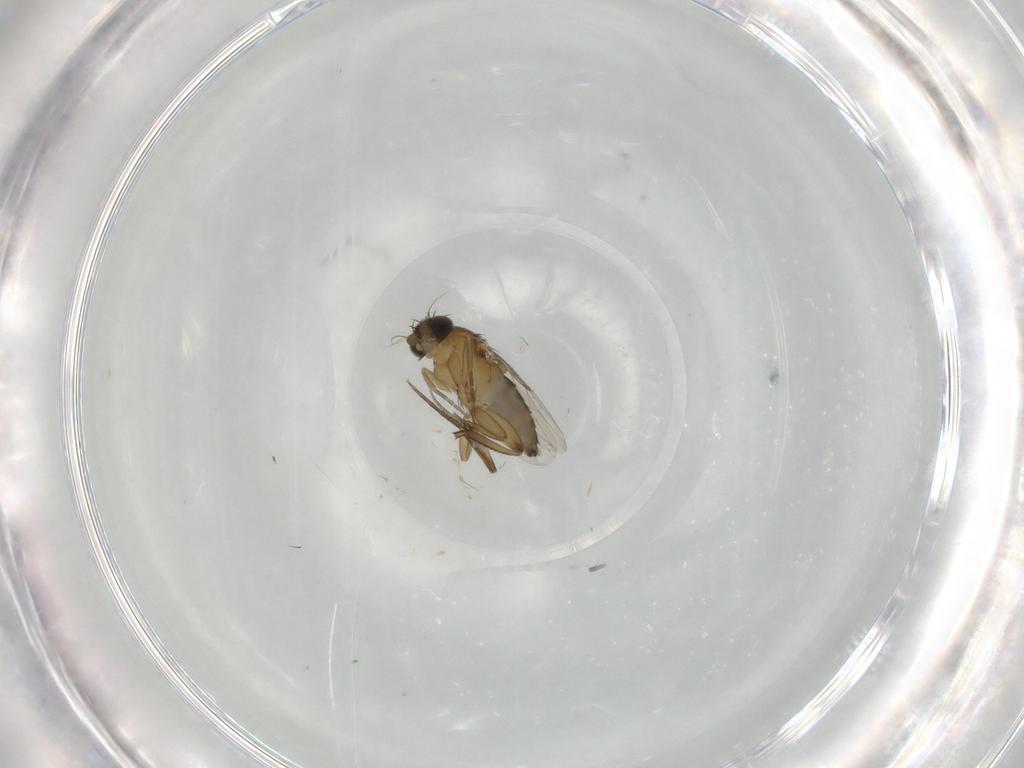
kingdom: Animalia
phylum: Arthropoda
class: Insecta
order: Diptera
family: Phoridae
